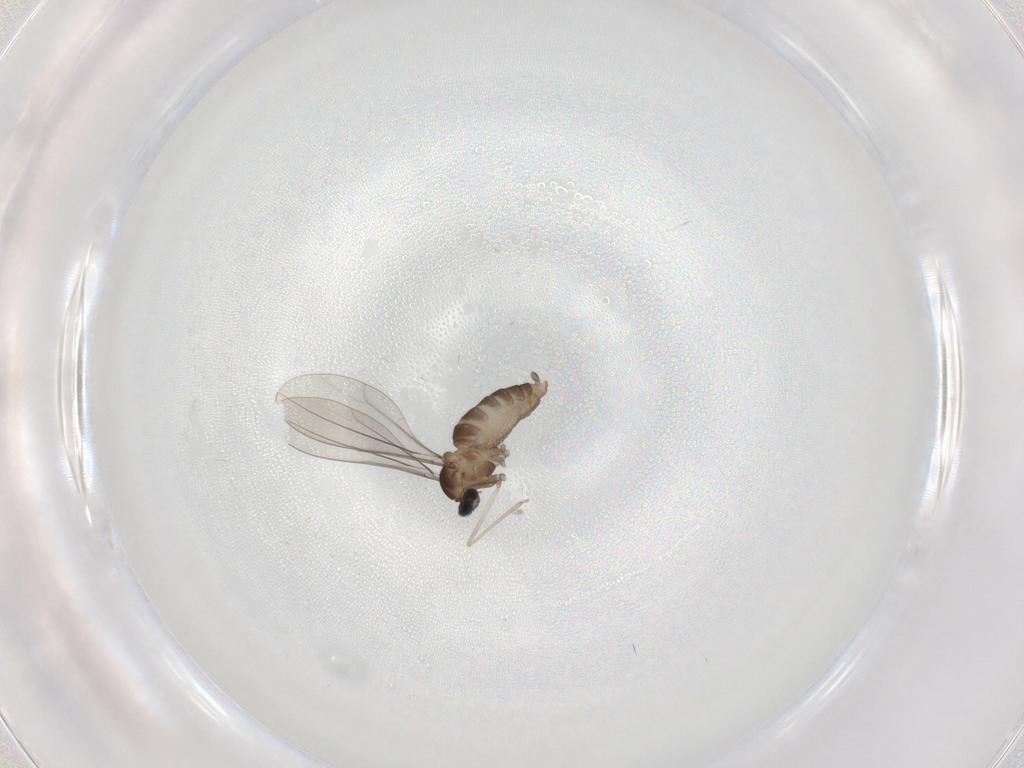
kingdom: Animalia
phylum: Arthropoda
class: Insecta
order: Diptera
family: Cecidomyiidae
